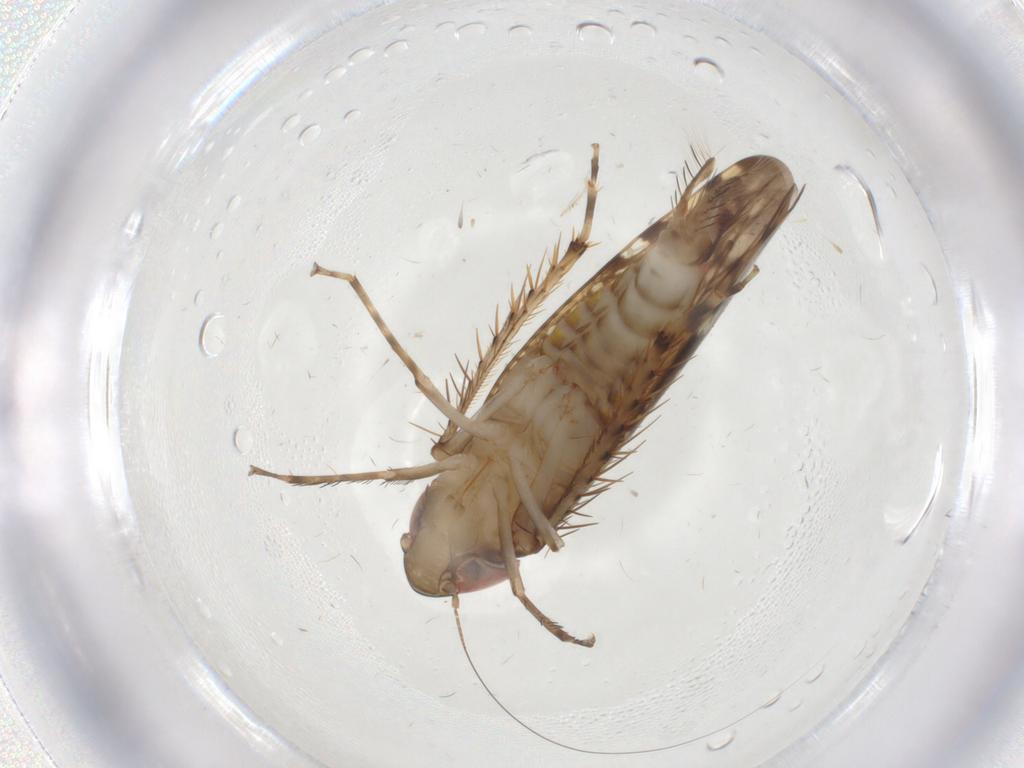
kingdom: Animalia
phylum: Arthropoda
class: Insecta
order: Hemiptera
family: Cicadellidae
